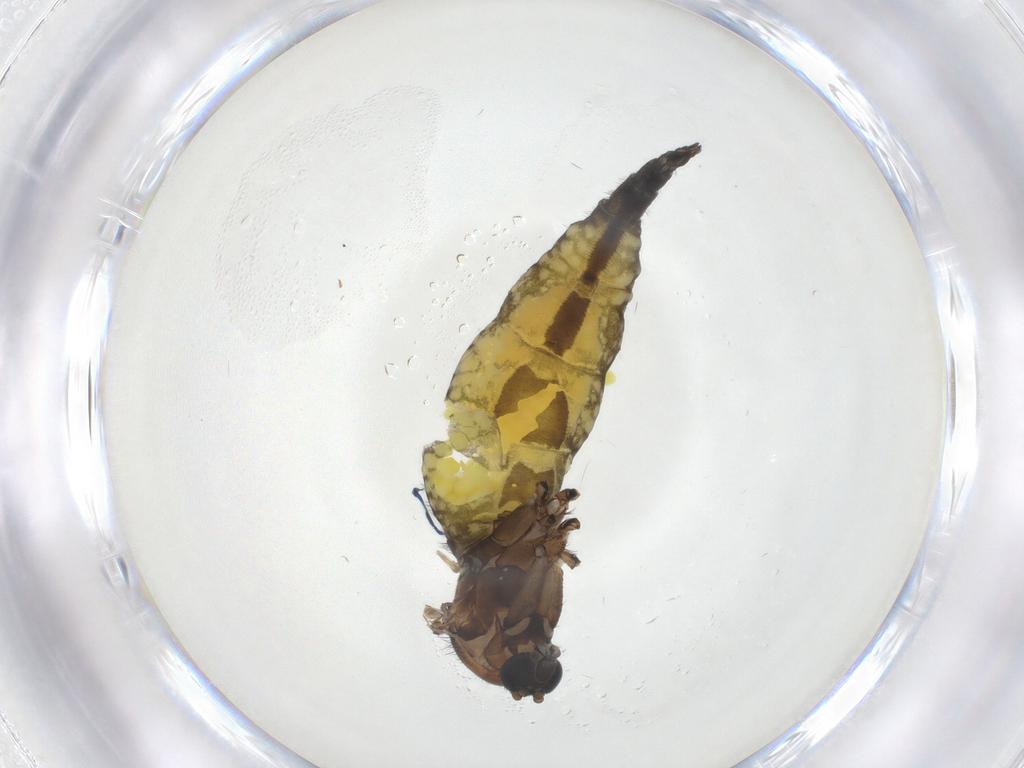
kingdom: Animalia
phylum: Arthropoda
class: Insecta
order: Diptera
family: Sciaridae
